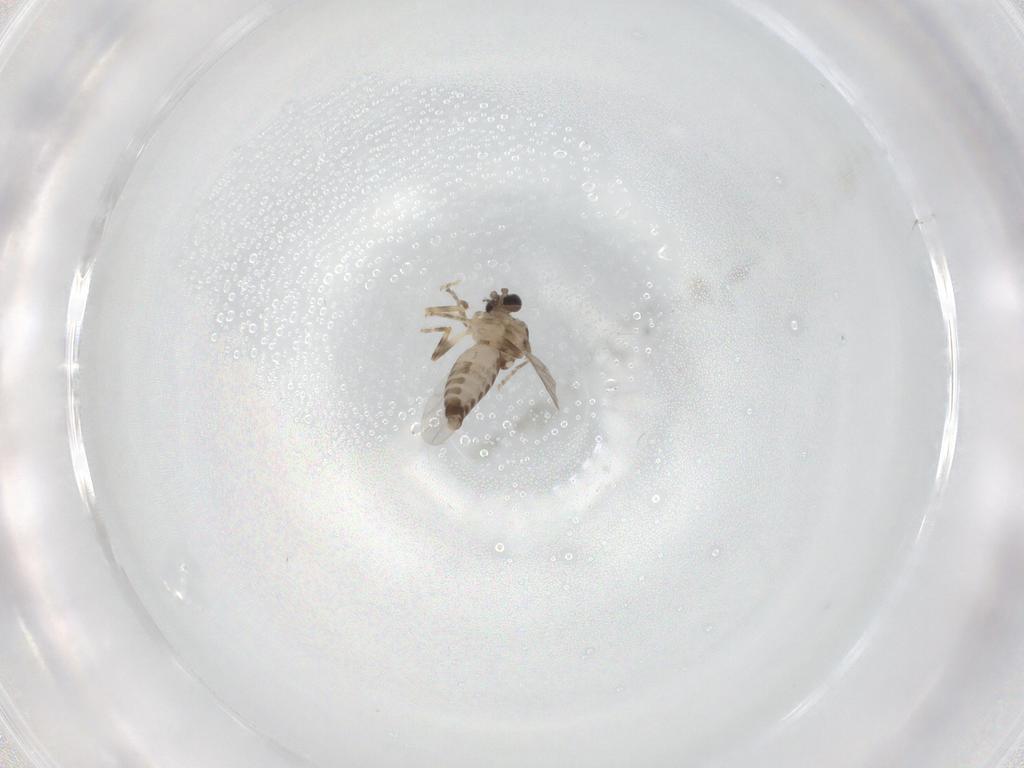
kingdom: Animalia
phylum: Arthropoda
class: Insecta
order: Diptera
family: Ceratopogonidae
